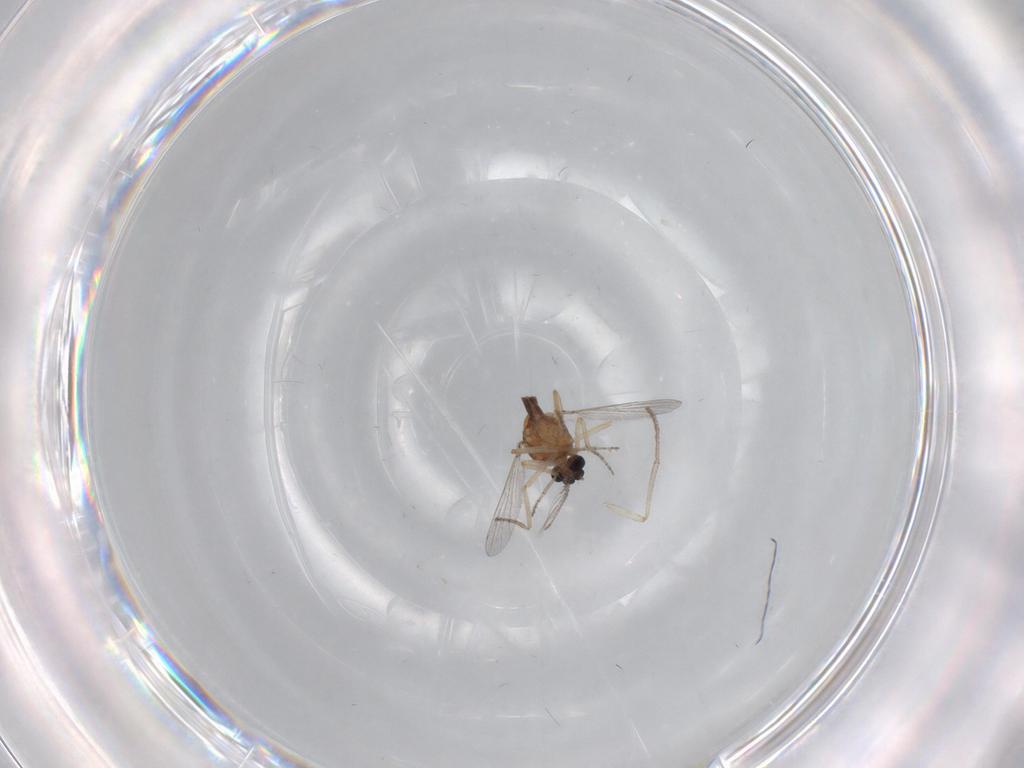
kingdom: Animalia
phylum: Arthropoda
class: Insecta
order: Diptera
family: Ceratopogonidae
